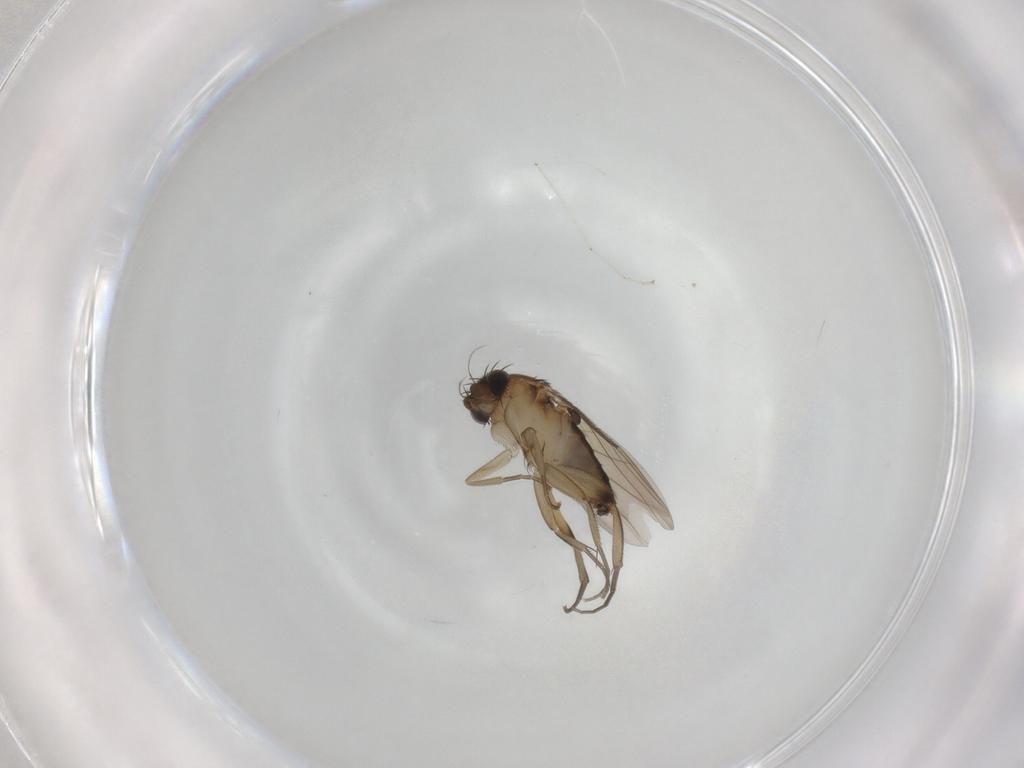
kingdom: Animalia
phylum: Arthropoda
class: Insecta
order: Diptera
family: Phoridae
